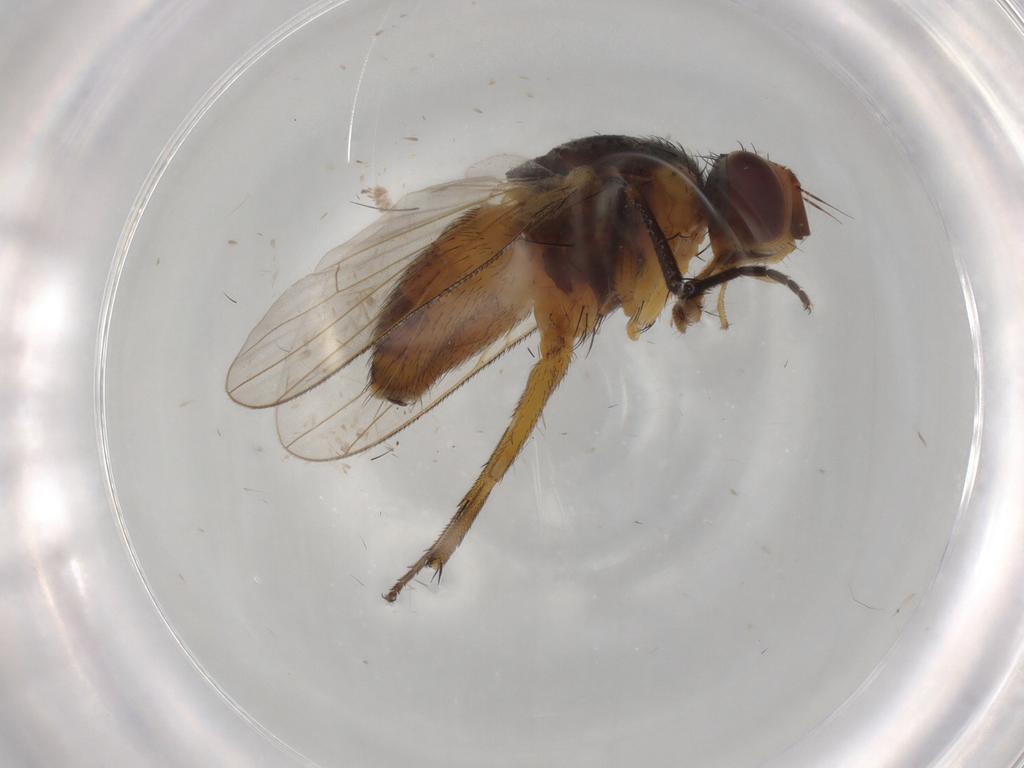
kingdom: Animalia
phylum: Arthropoda
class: Insecta
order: Diptera
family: Muscidae
